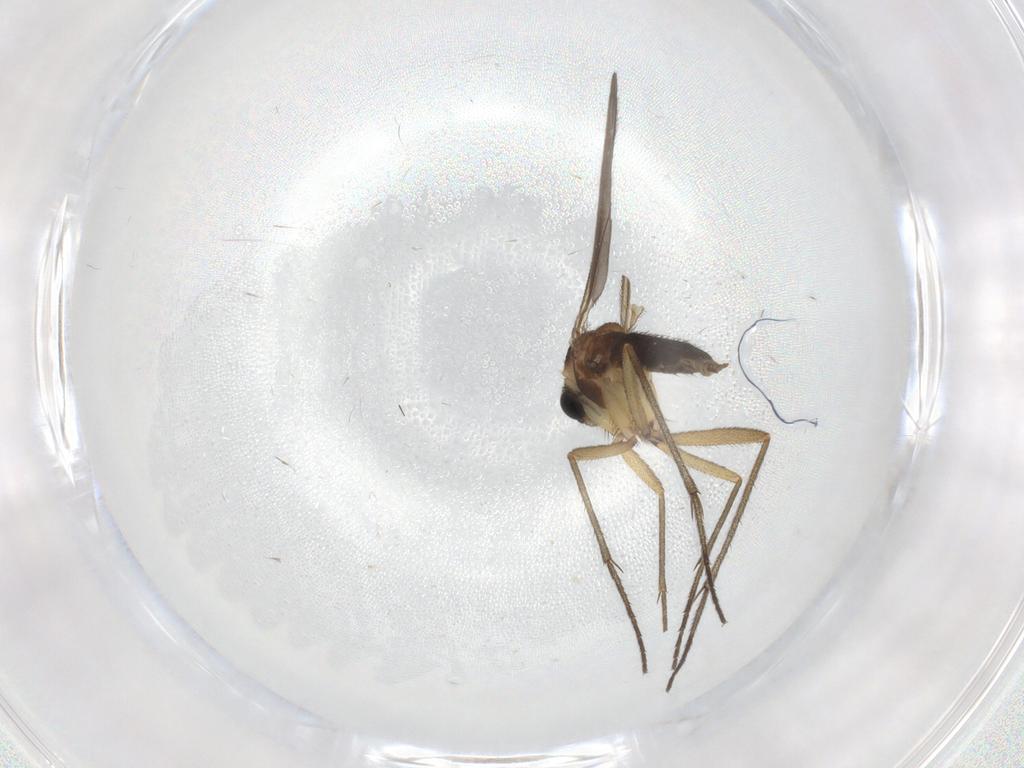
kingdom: Animalia
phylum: Arthropoda
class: Insecta
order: Diptera
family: Sciaridae
